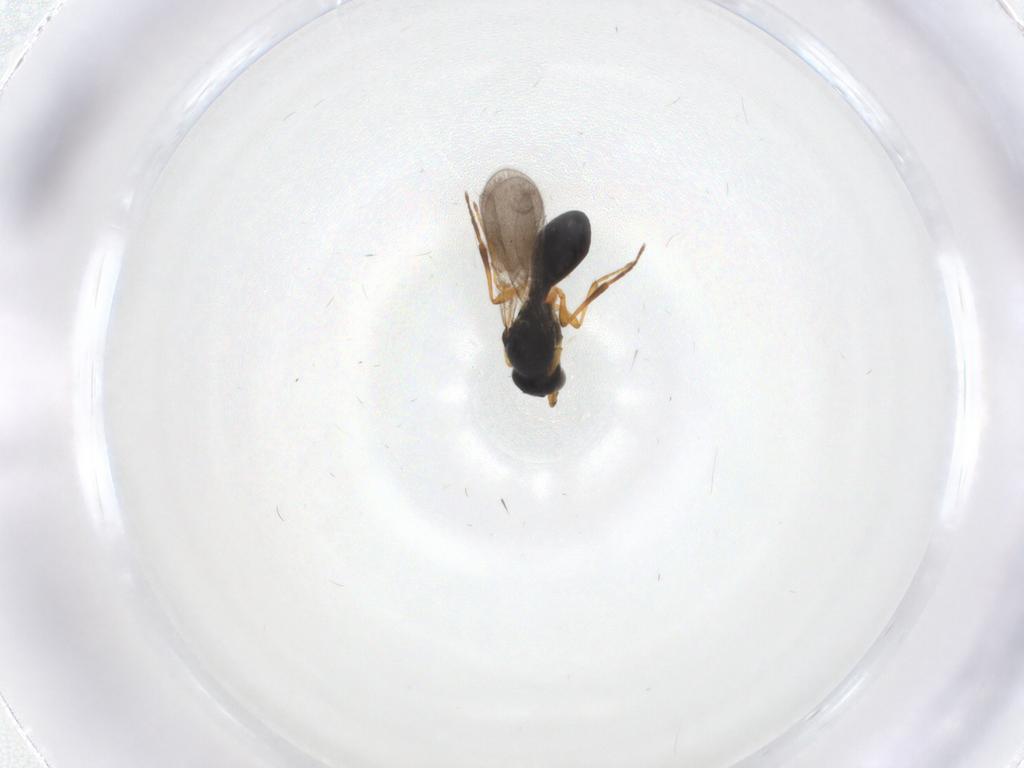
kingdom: Animalia
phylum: Arthropoda
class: Insecta
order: Hymenoptera
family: Platygastridae
